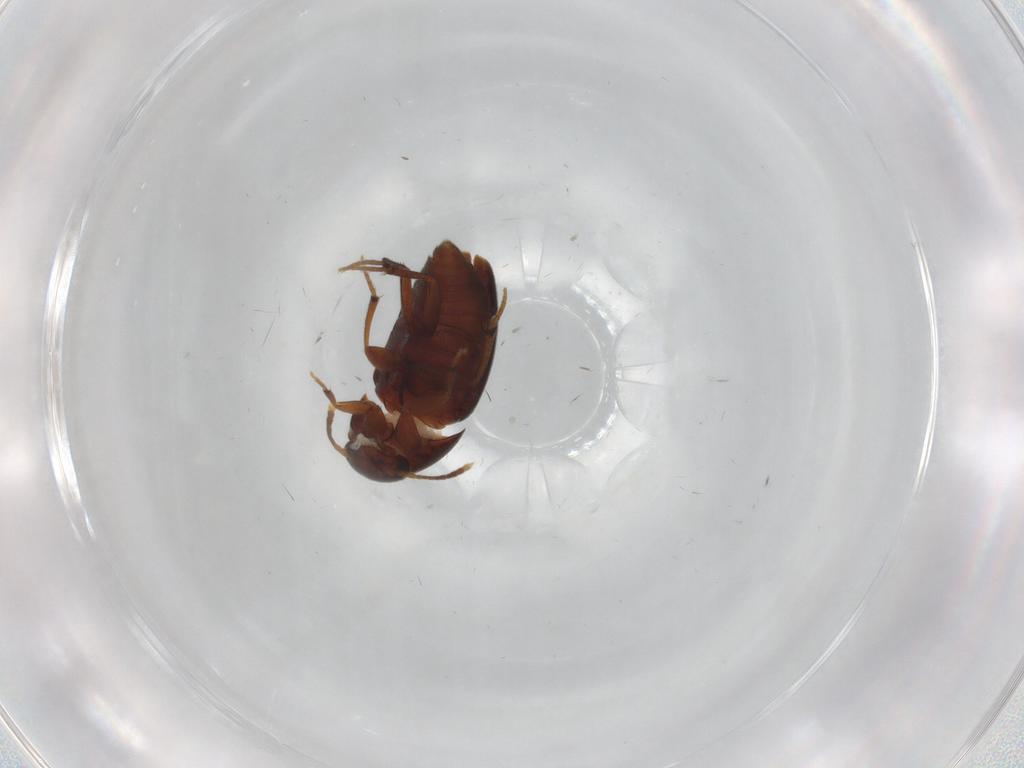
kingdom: Animalia
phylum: Arthropoda
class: Insecta
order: Coleoptera
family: Leiodidae
